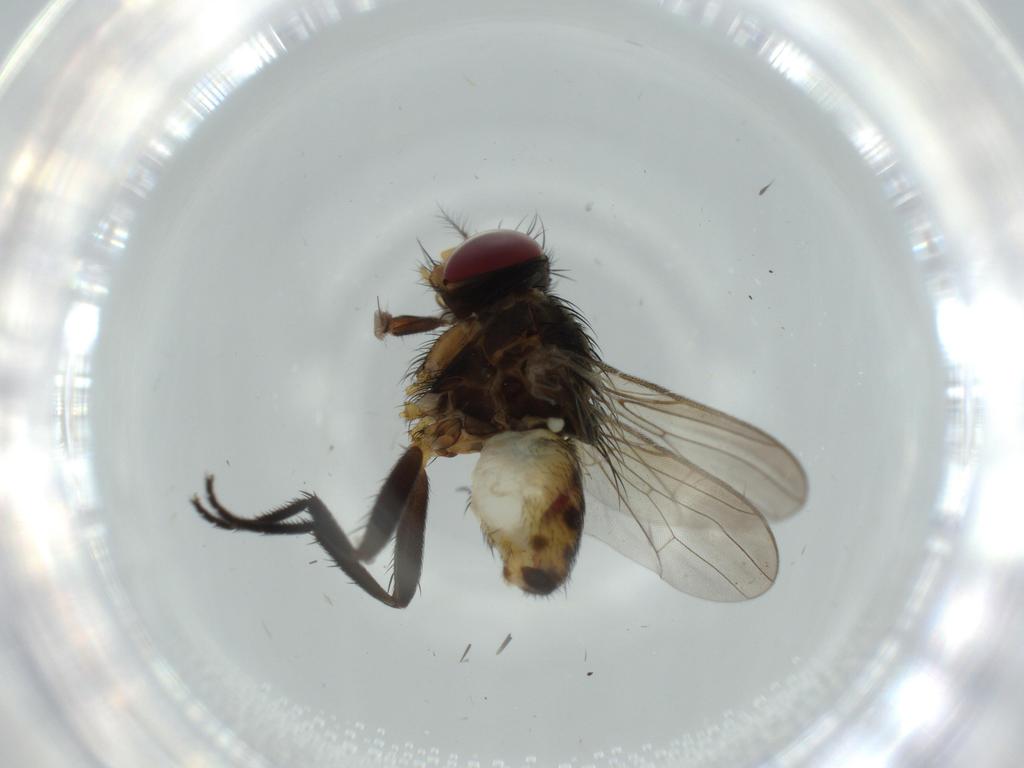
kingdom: Animalia
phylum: Arthropoda
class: Insecta
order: Diptera
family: Anthomyiidae
